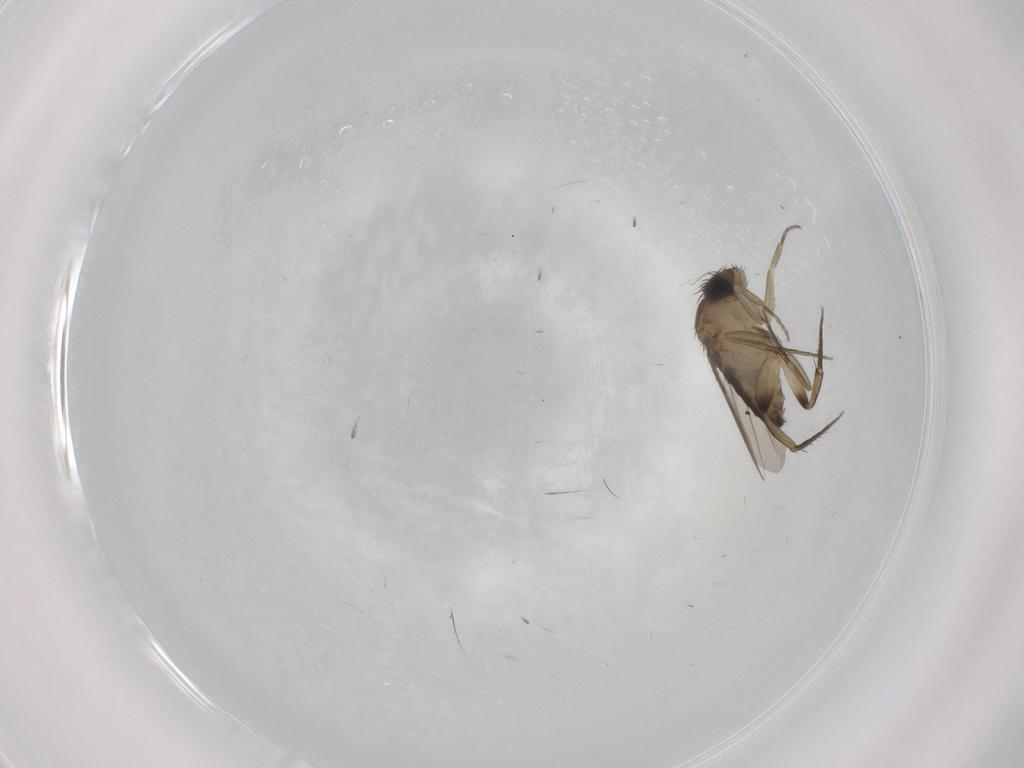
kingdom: Animalia
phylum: Arthropoda
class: Insecta
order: Diptera
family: Phoridae
